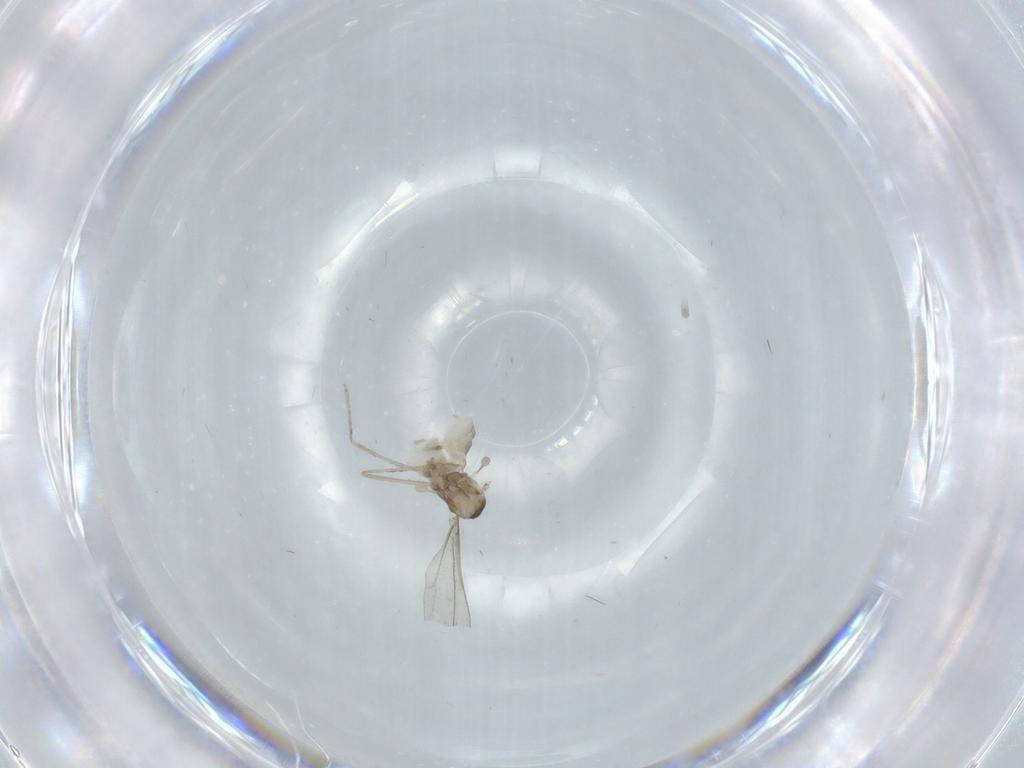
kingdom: Animalia
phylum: Arthropoda
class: Insecta
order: Diptera
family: Cecidomyiidae
